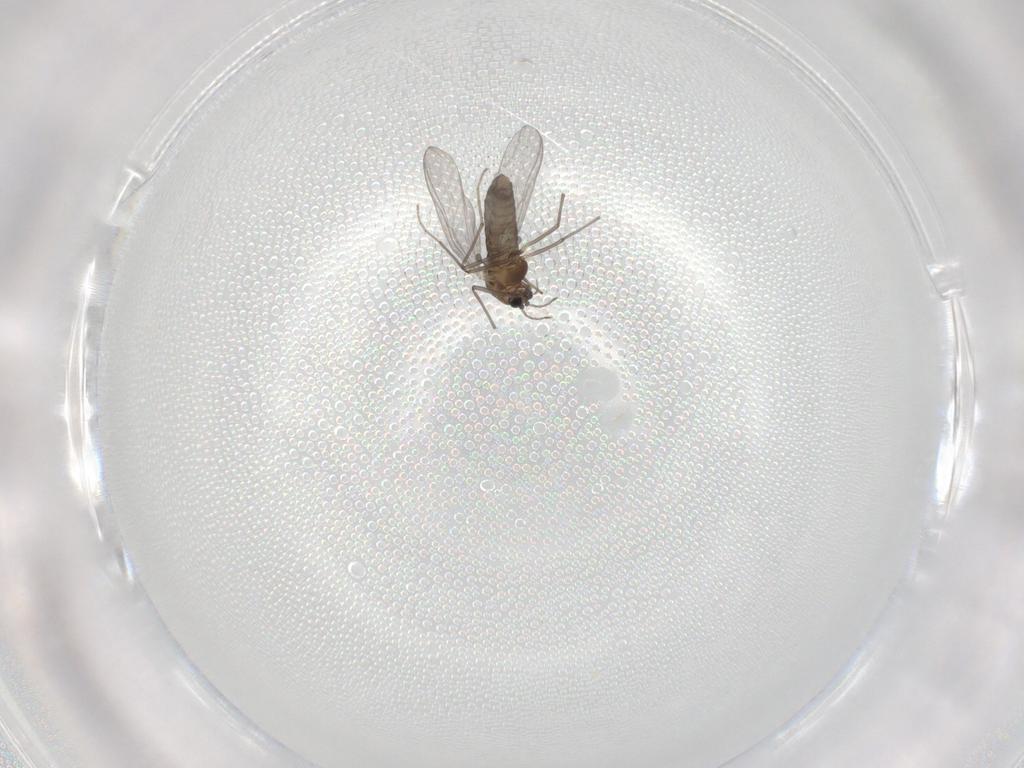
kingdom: Animalia
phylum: Arthropoda
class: Insecta
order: Diptera
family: Chironomidae
